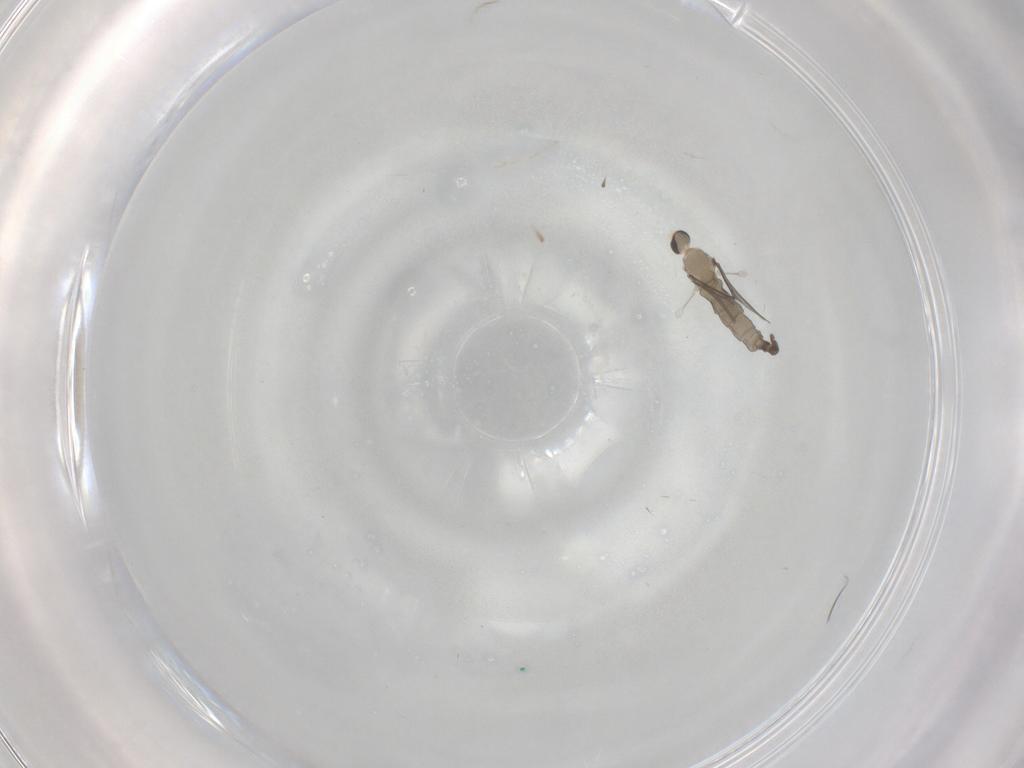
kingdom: Animalia
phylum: Arthropoda
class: Insecta
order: Diptera
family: Cecidomyiidae
